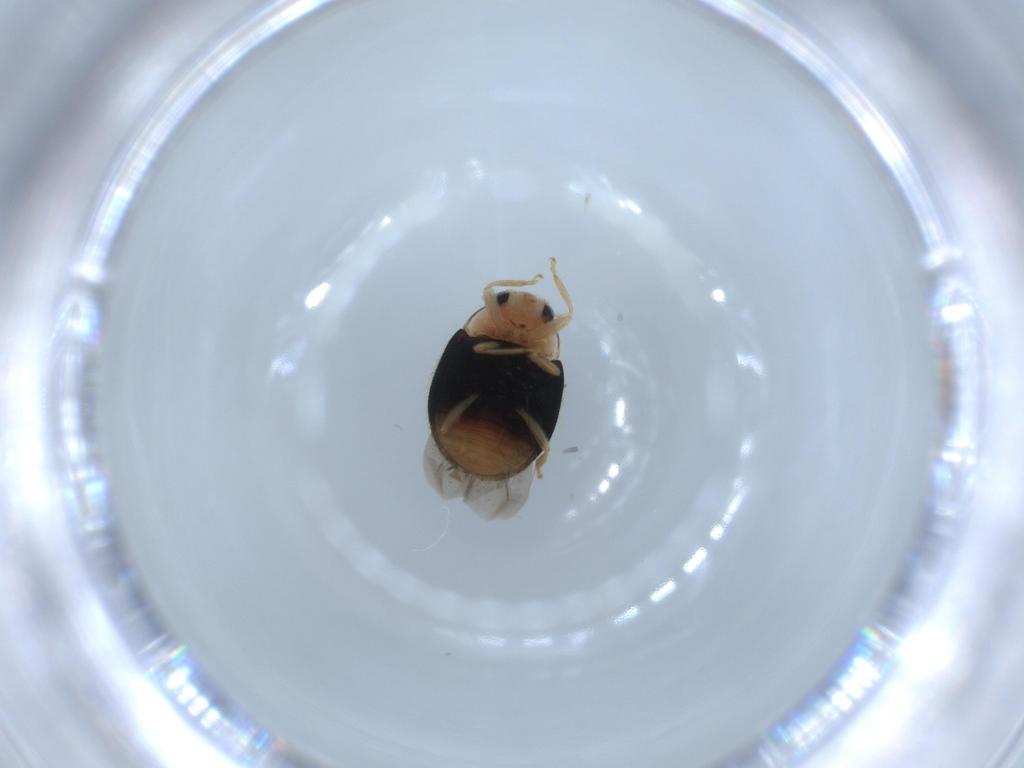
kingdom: Animalia
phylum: Arthropoda
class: Insecta
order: Coleoptera
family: Coccinellidae
